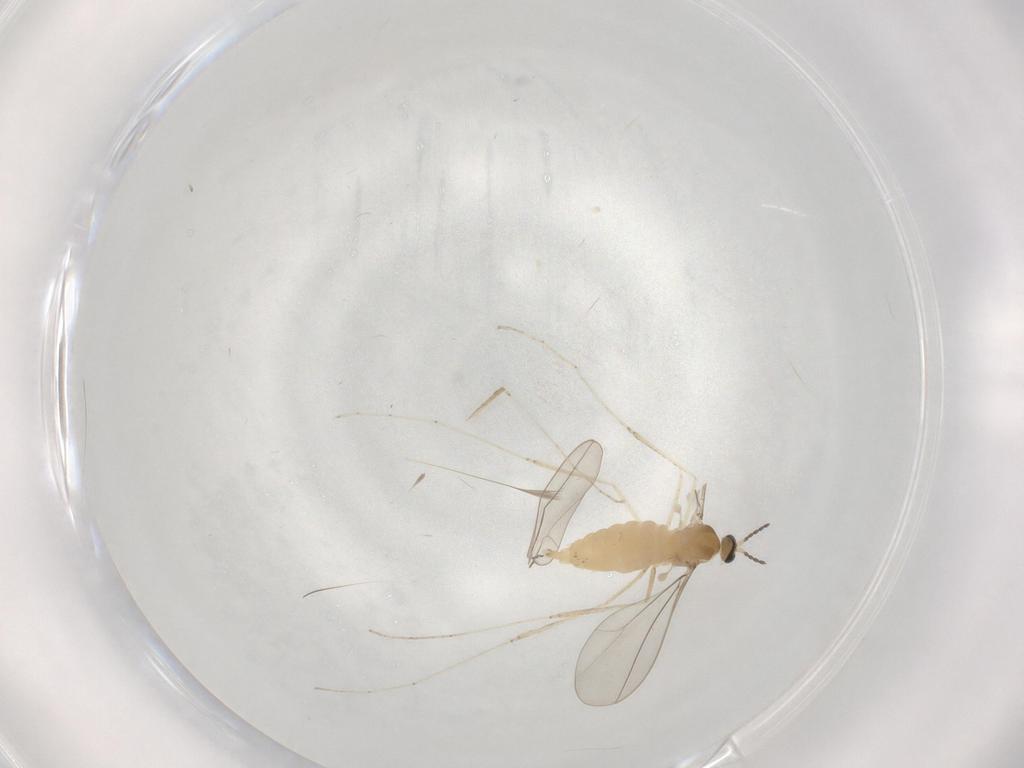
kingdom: Animalia
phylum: Arthropoda
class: Insecta
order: Diptera
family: Cecidomyiidae
